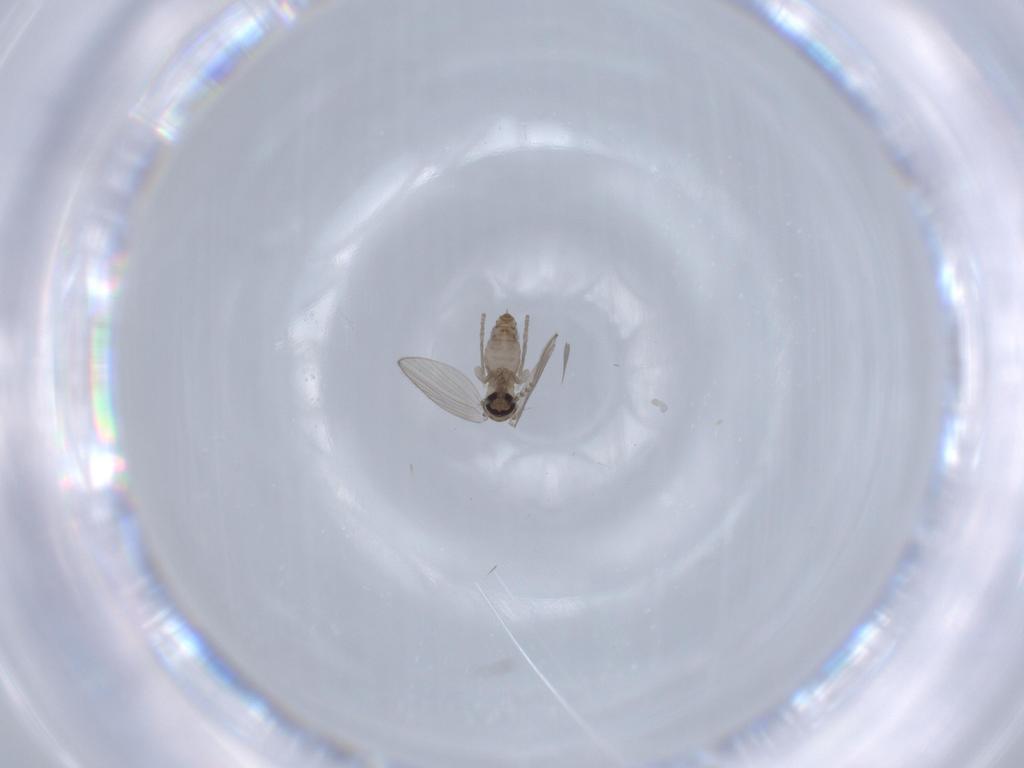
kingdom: Animalia
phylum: Arthropoda
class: Insecta
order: Diptera
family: Psychodidae
